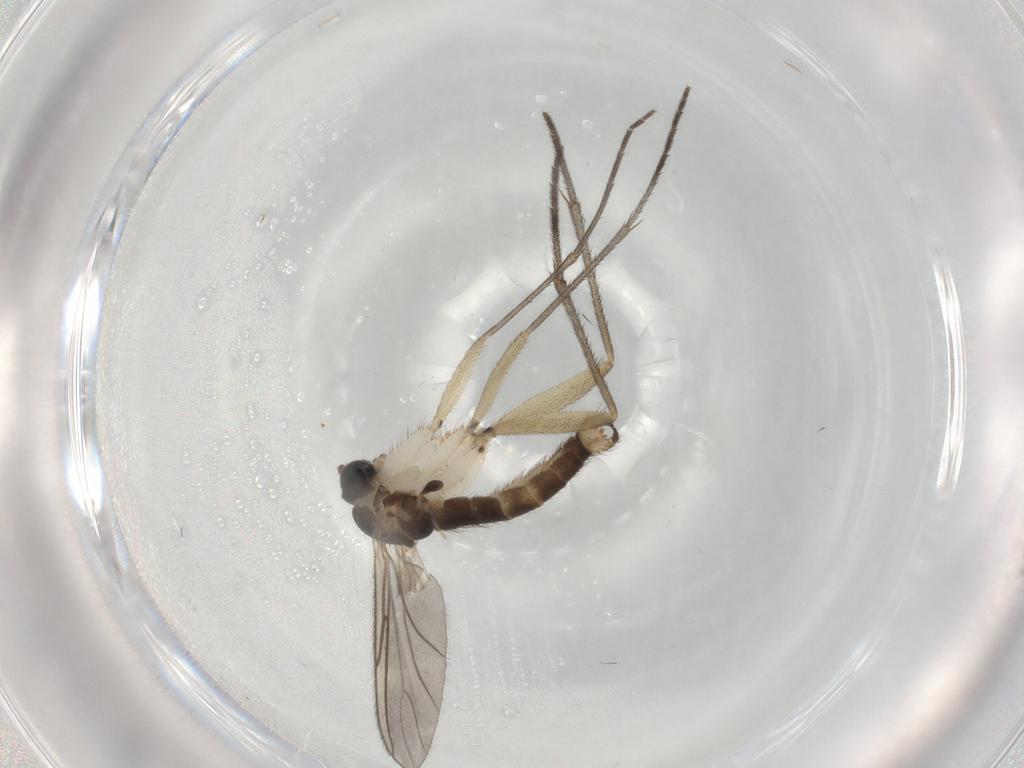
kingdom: Animalia
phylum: Arthropoda
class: Insecta
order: Diptera
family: Sciaridae
